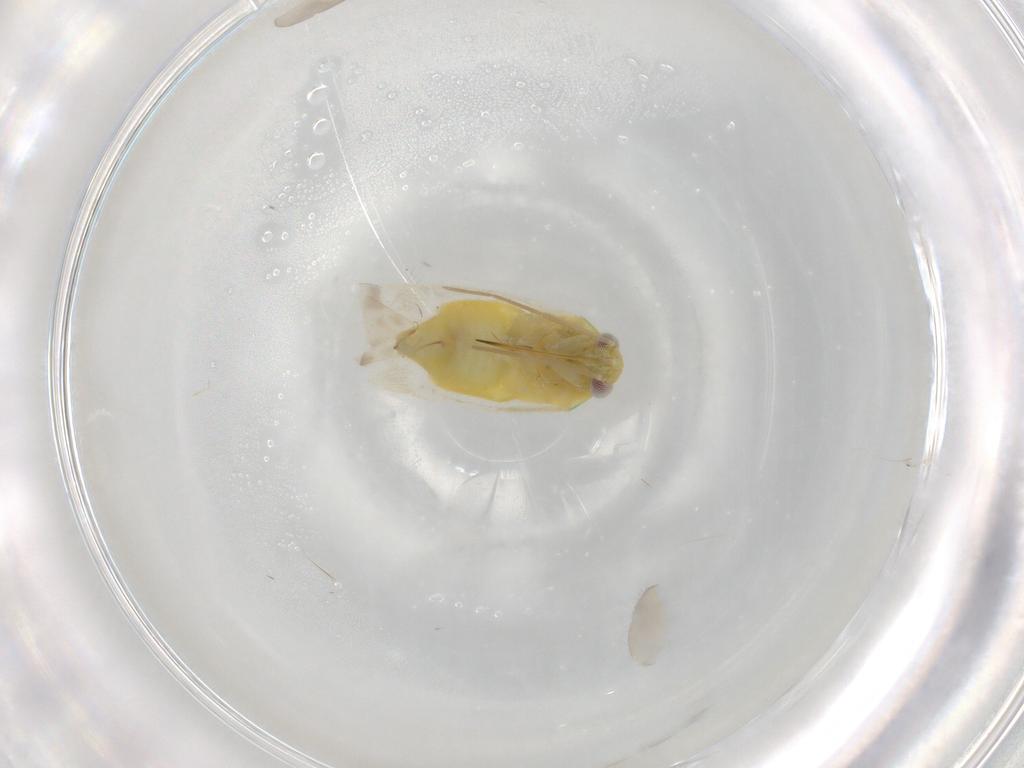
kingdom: Animalia
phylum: Arthropoda
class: Insecta
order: Hemiptera
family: Miridae
